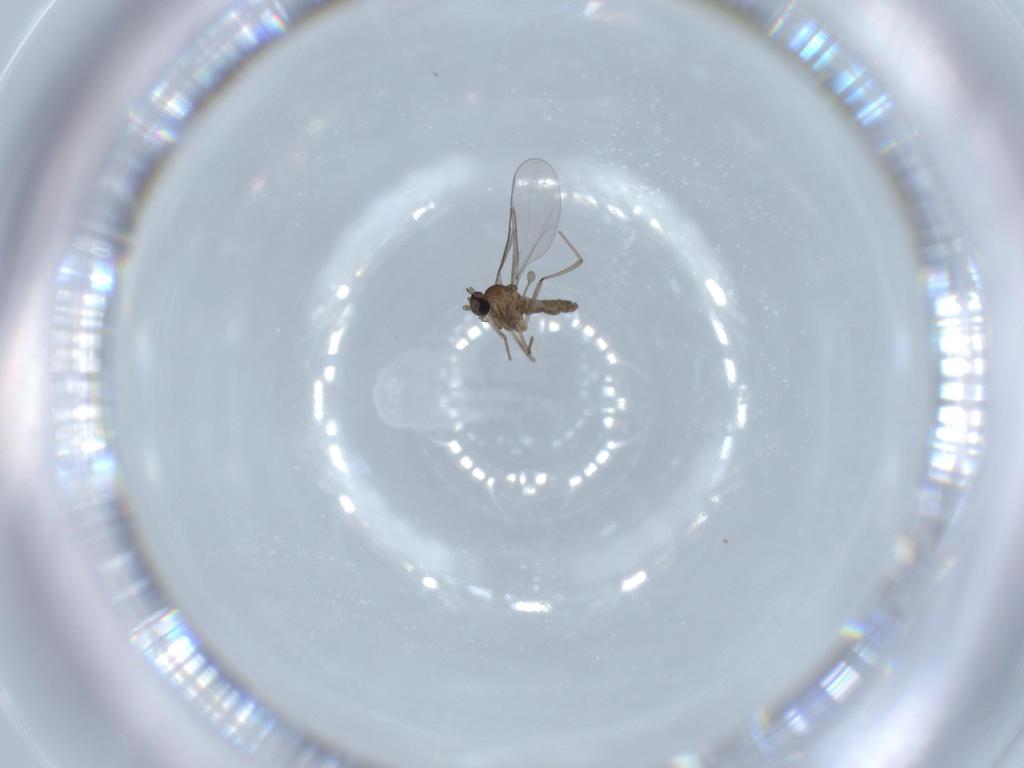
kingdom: Animalia
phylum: Arthropoda
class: Insecta
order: Diptera
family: Cecidomyiidae
